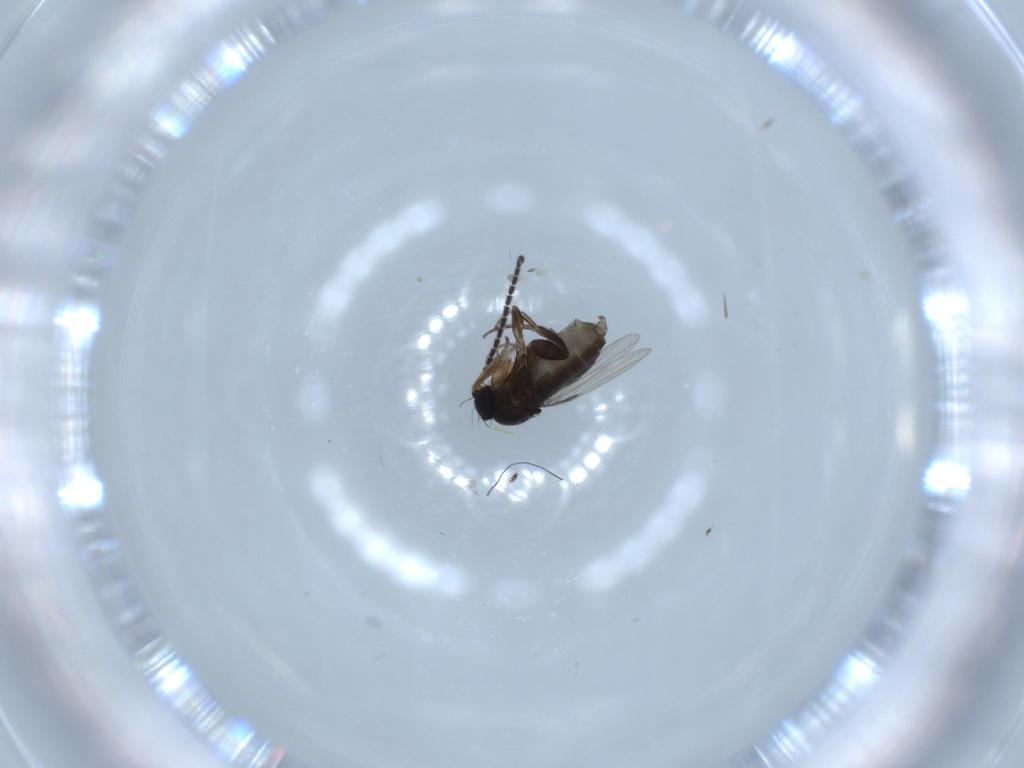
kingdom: Animalia
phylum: Arthropoda
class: Insecta
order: Diptera
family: Phoridae
